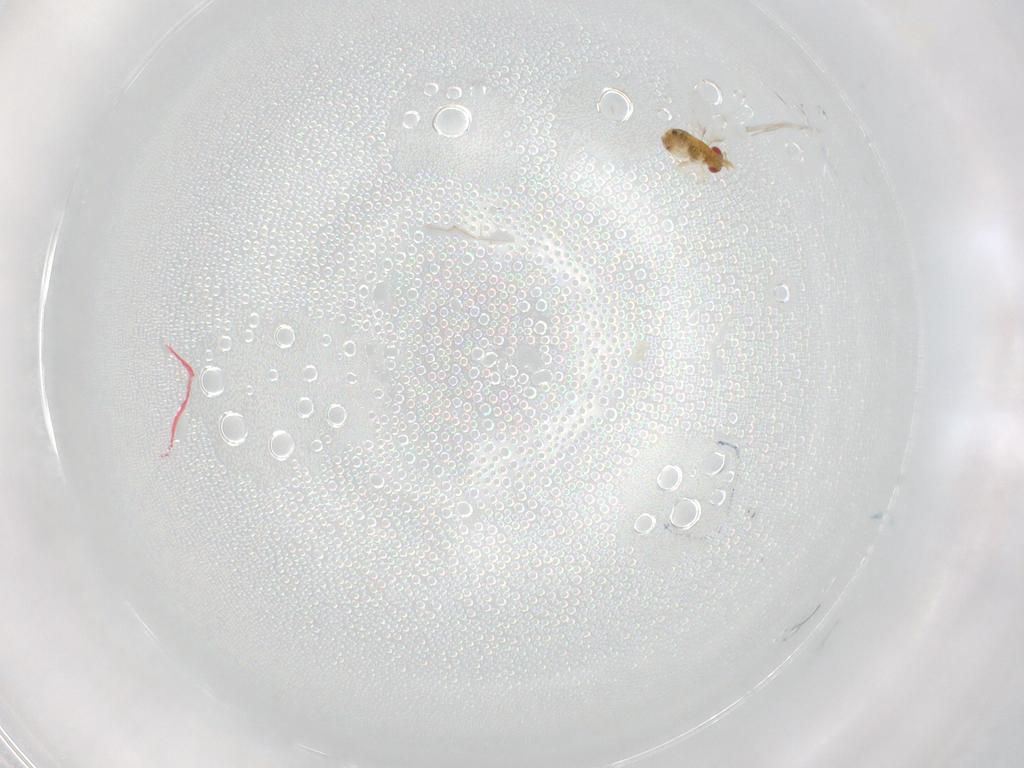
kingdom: Animalia
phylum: Arthropoda
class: Insecta
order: Hymenoptera
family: Trichogrammatidae
